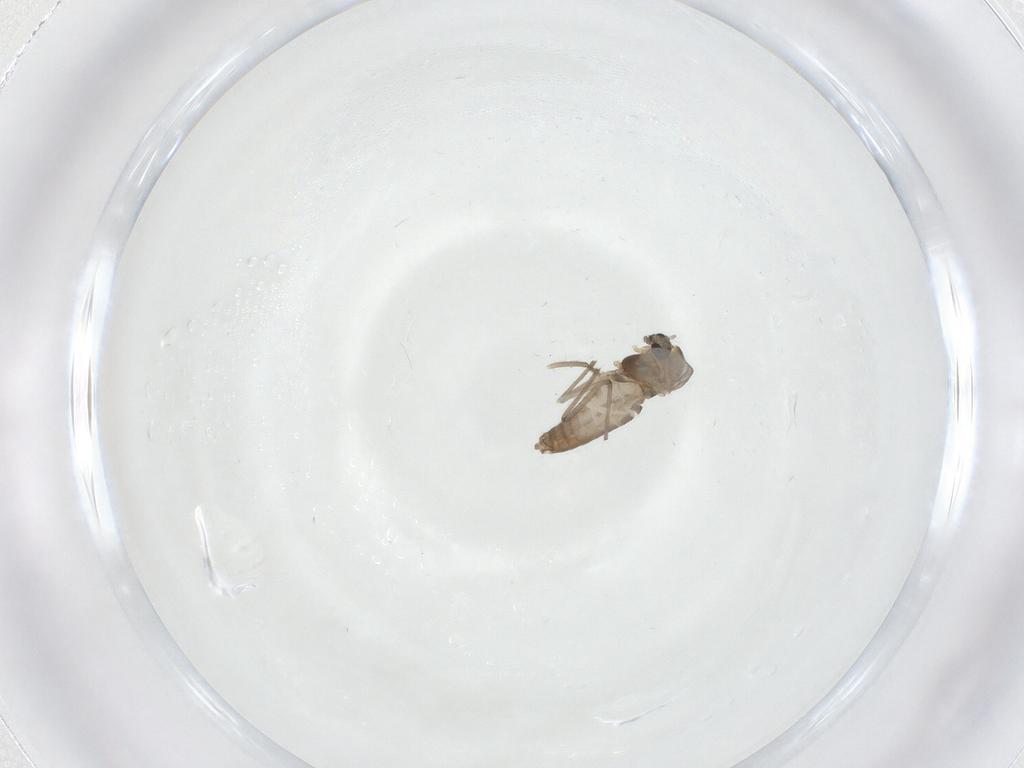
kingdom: Animalia
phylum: Arthropoda
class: Insecta
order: Diptera
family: Chironomidae
